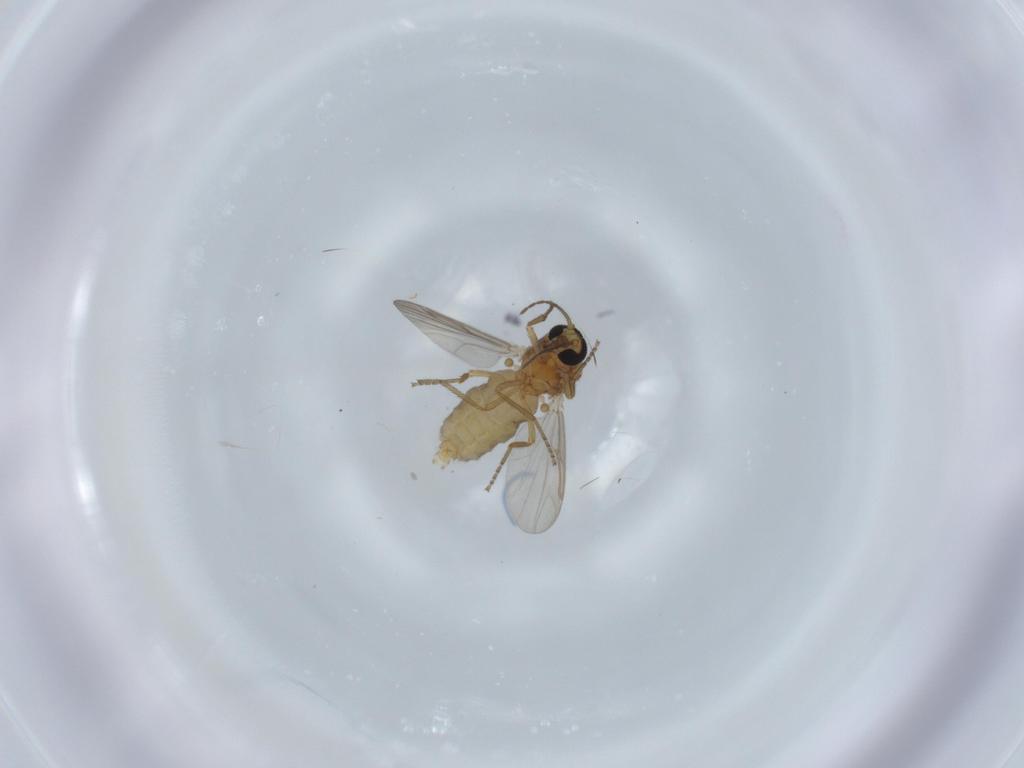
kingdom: Animalia
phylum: Arthropoda
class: Insecta
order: Diptera
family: Ceratopogonidae
